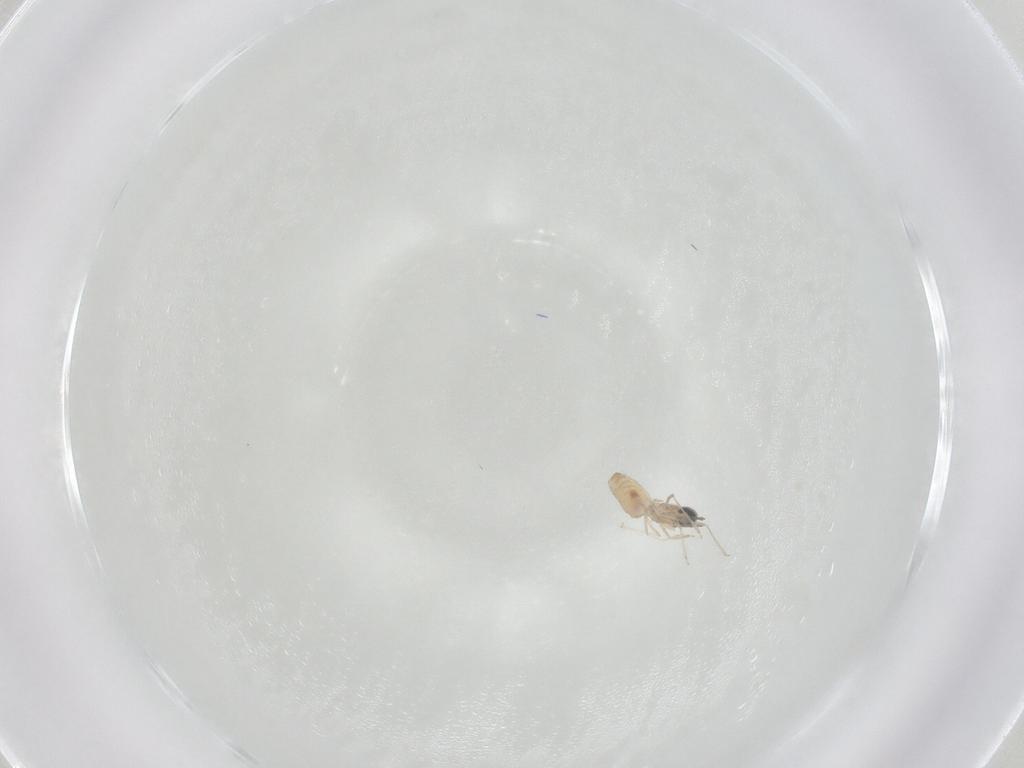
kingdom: Animalia
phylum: Arthropoda
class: Insecta
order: Diptera
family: Cecidomyiidae
